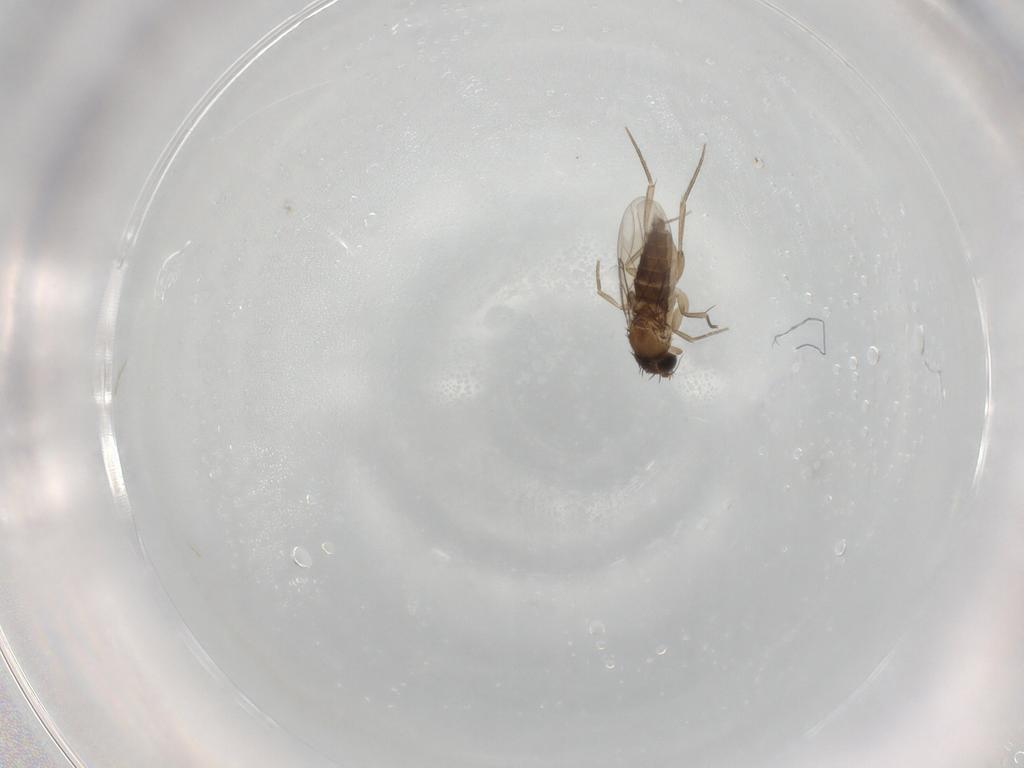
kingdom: Animalia
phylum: Arthropoda
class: Insecta
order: Diptera
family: Phoridae
